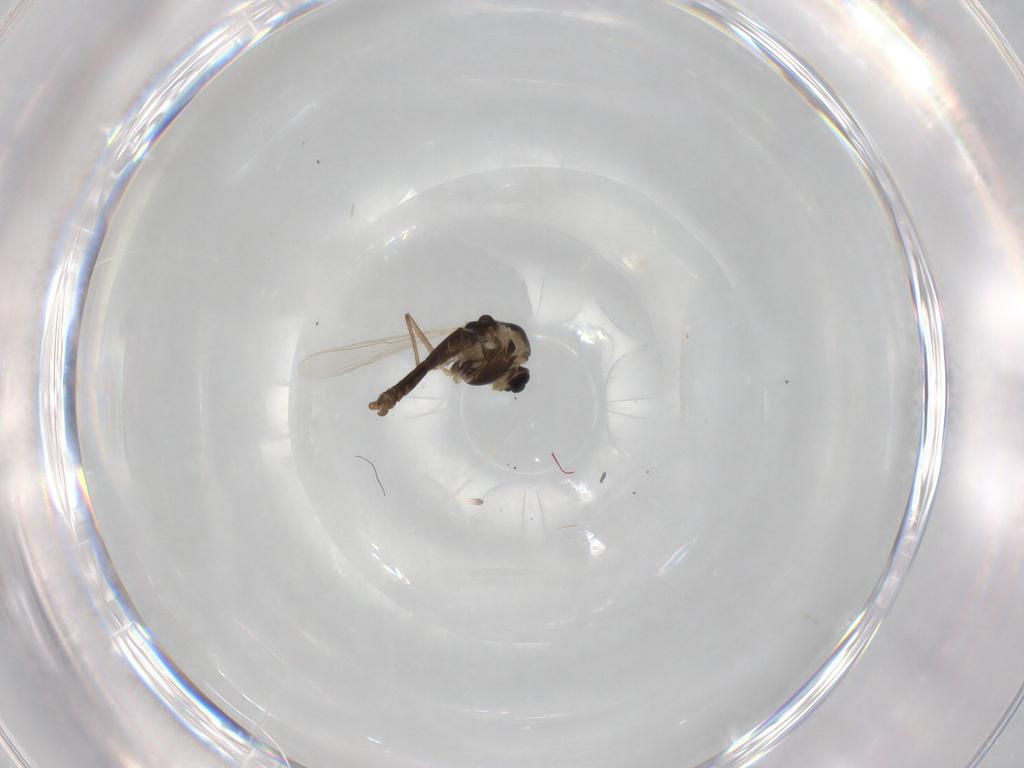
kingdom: Animalia
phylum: Arthropoda
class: Insecta
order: Diptera
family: Chironomidae
